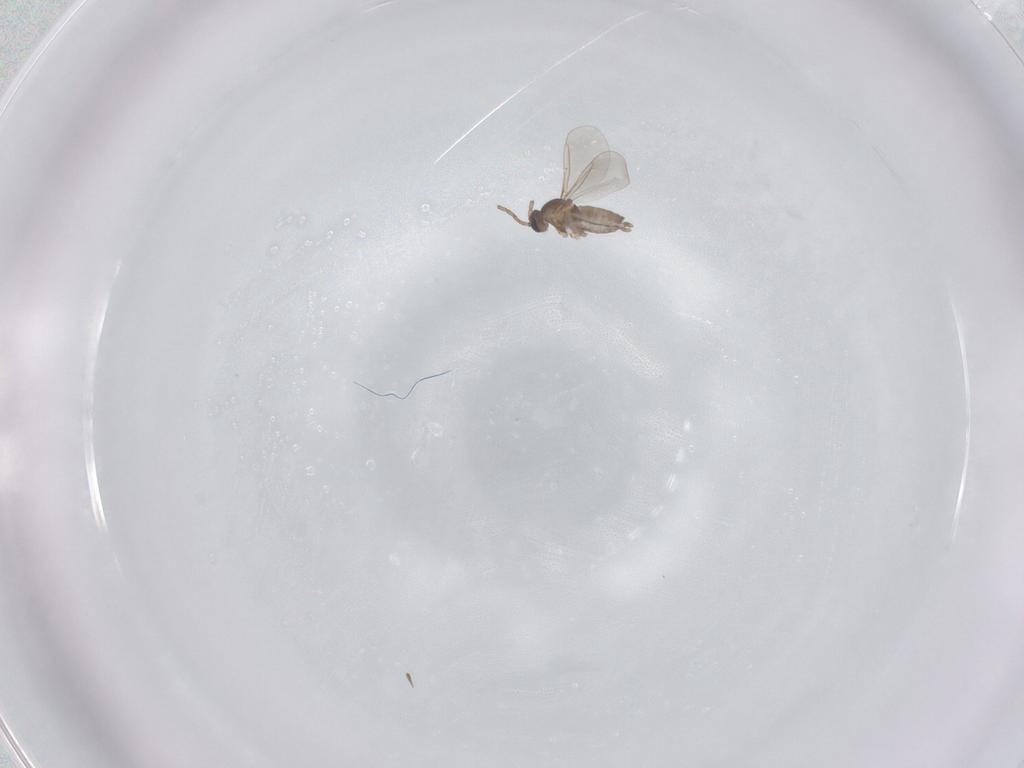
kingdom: Animalia
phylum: Arthropoda
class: Insecta
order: Diptera
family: Cecidomyiidae
